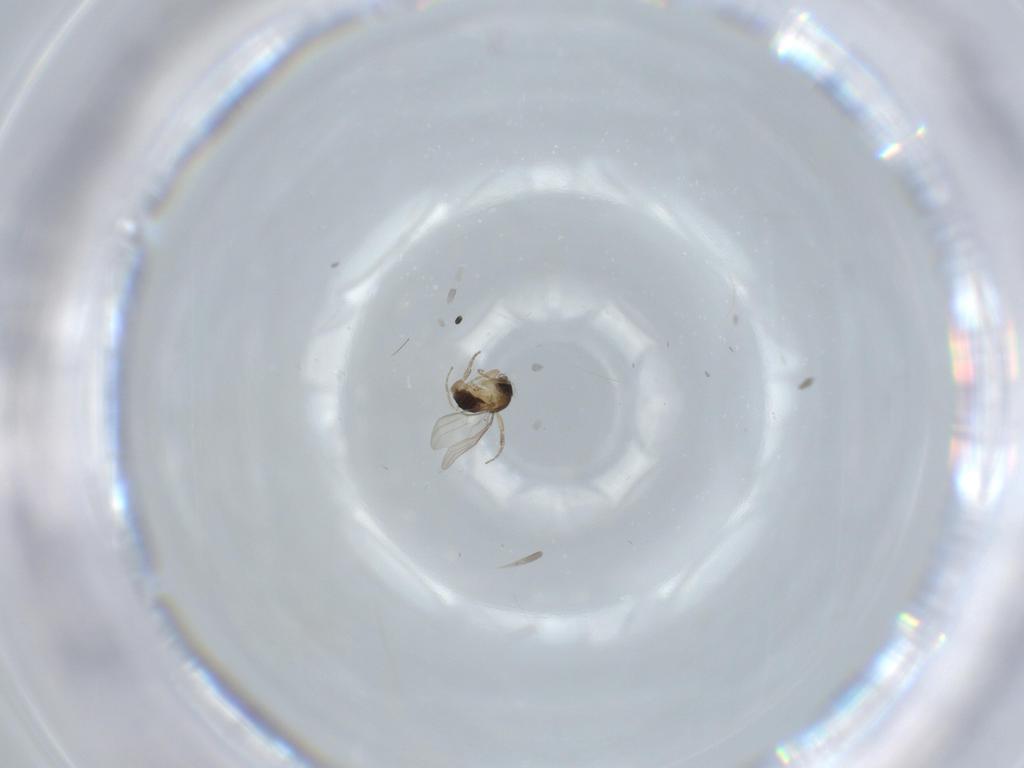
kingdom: Animalia
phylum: Arthropoda
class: Insecta
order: Diptera
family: Phoridae
